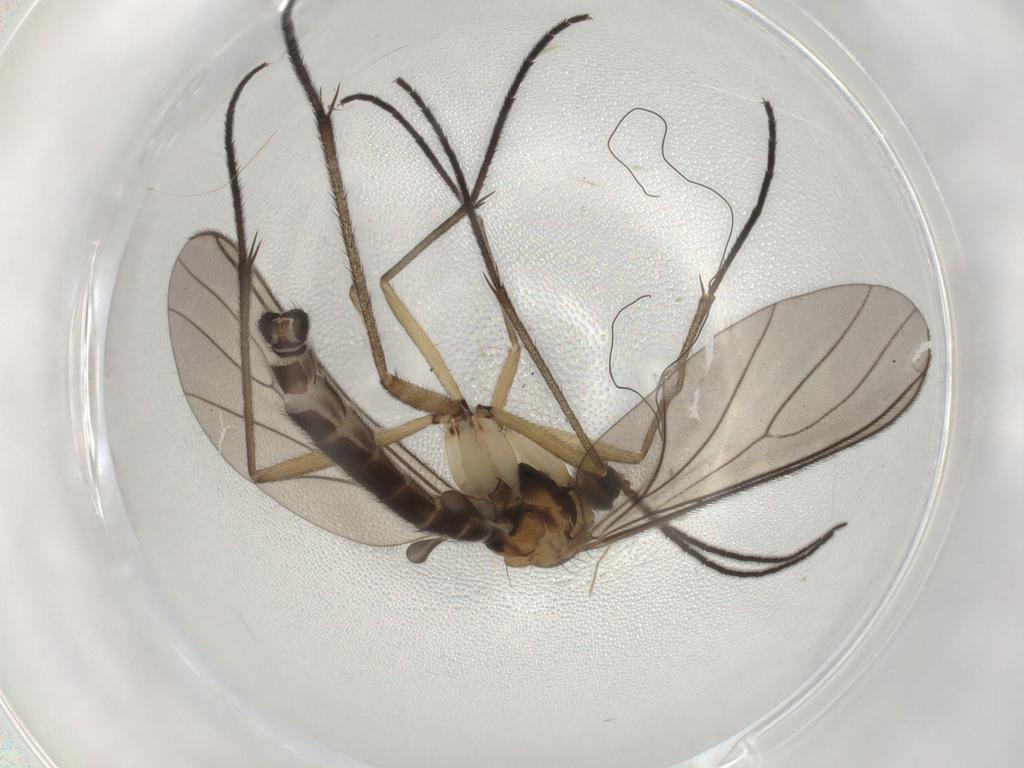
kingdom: Animalia
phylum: Arthropoda
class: Insecta
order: Diptera
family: Sciaridae
